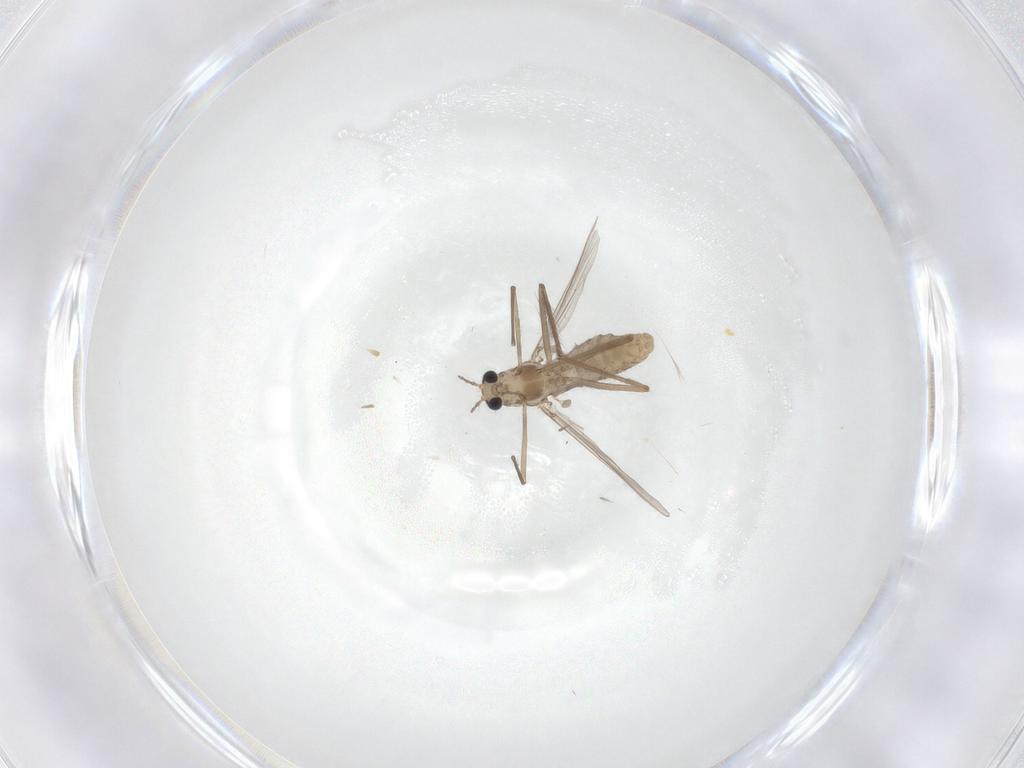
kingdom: Animalia
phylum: Arthropoda
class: Insecta
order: Diptera
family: Chironomidae
